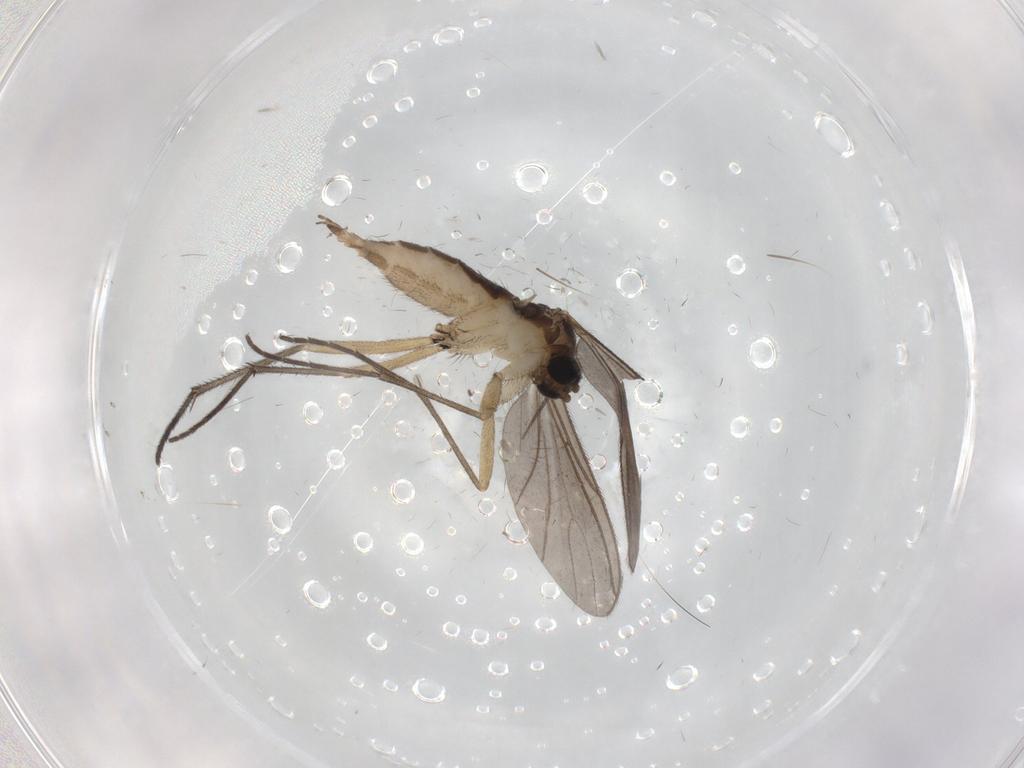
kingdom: Animalia
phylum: Arthropoda
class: Insecta
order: Diptera
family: Sciaridae
